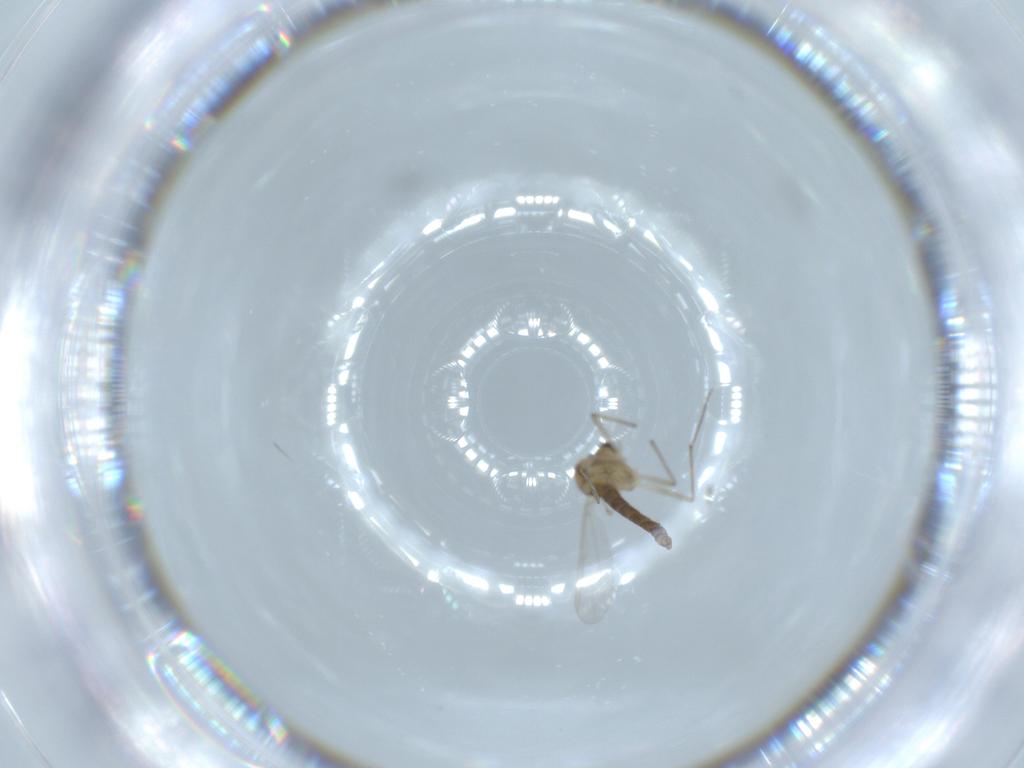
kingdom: Animalia
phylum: Arthropoda
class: Insecta
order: Diptera
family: Chironomidae
